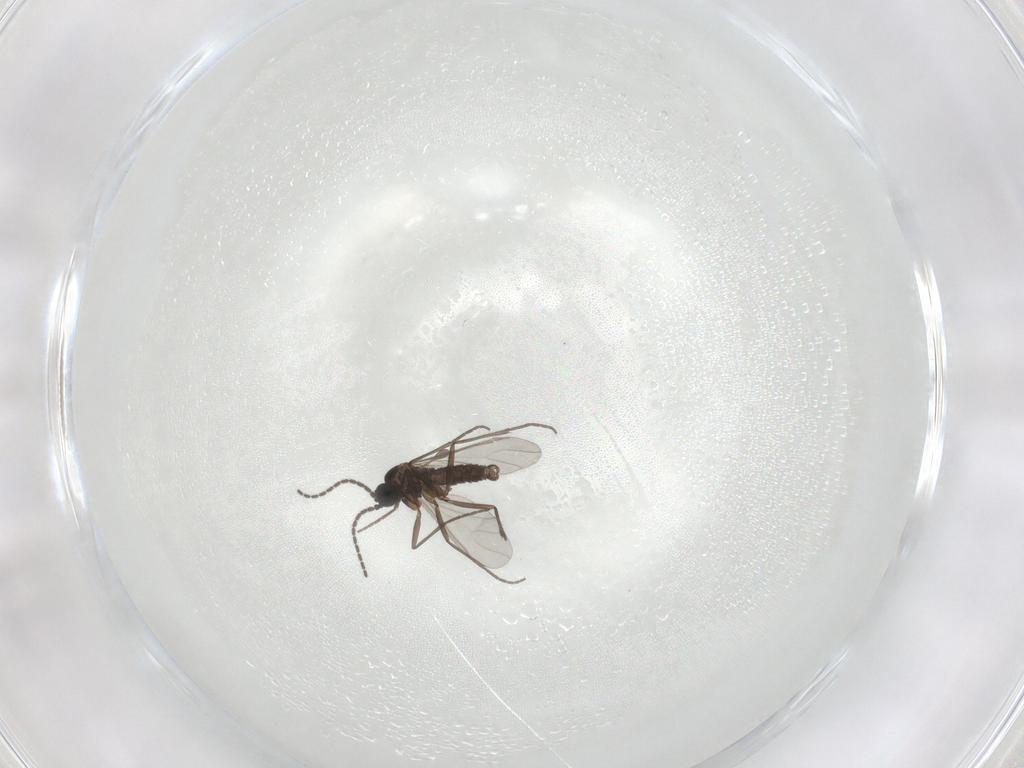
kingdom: Animalia
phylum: Arthropoda
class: Insecta
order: Diptera
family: Sciaridae
